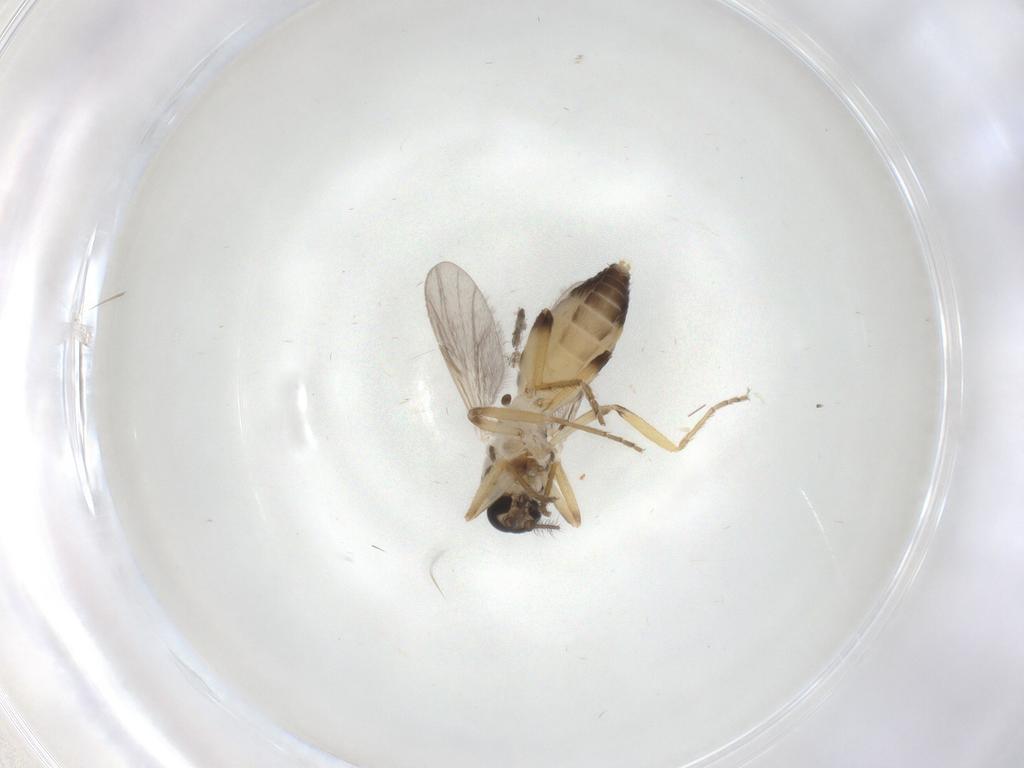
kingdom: Animalia
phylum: Arthropoda
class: Insecta
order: Diptera
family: Ceratopogonidae
